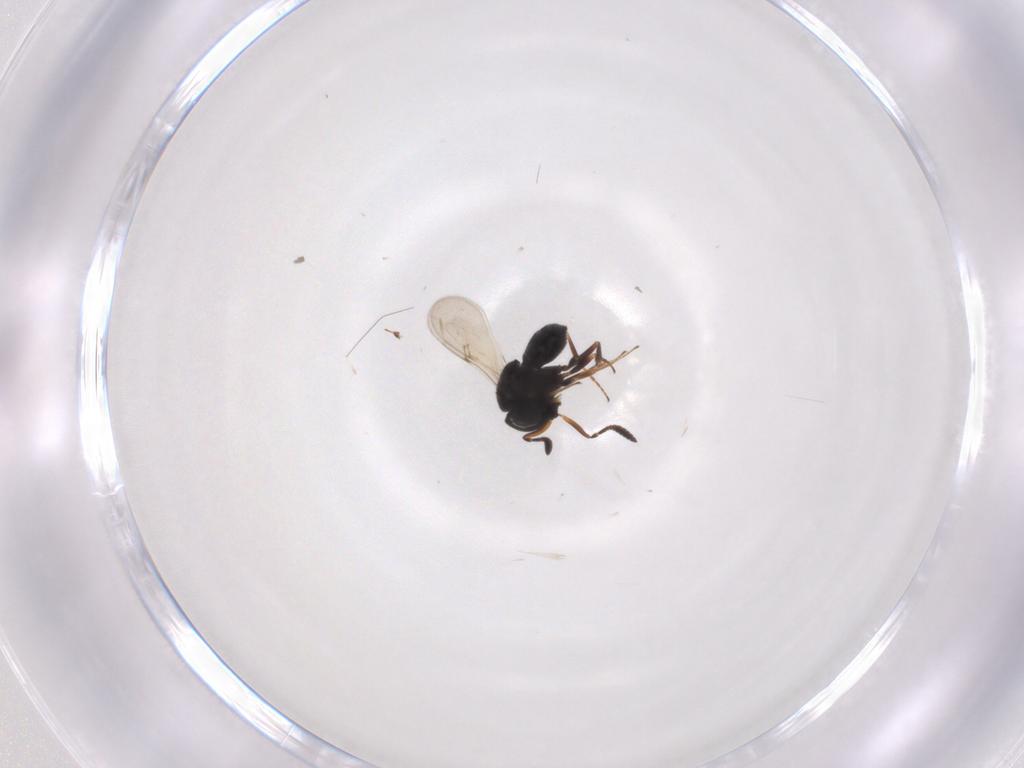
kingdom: Animalia
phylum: Arthropoda
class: Insecta
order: Hymenoptera
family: Scelionidae
